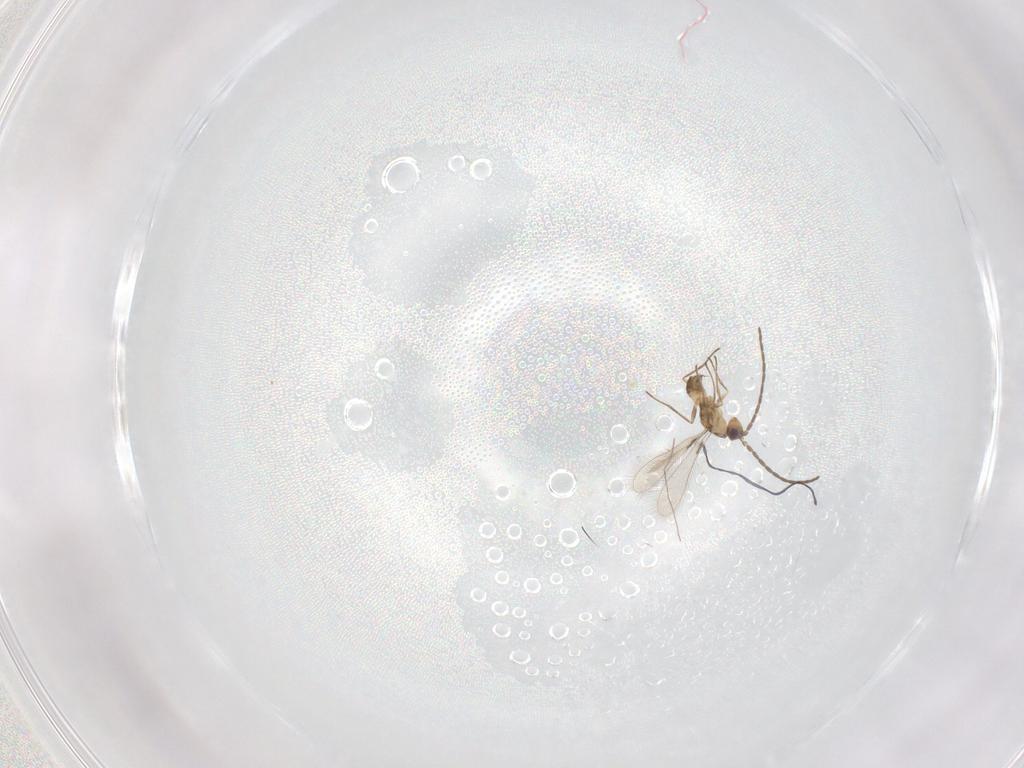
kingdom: Animalia
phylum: Arthropoda
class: Insecta
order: Hymenoptera
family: Mymaridae
